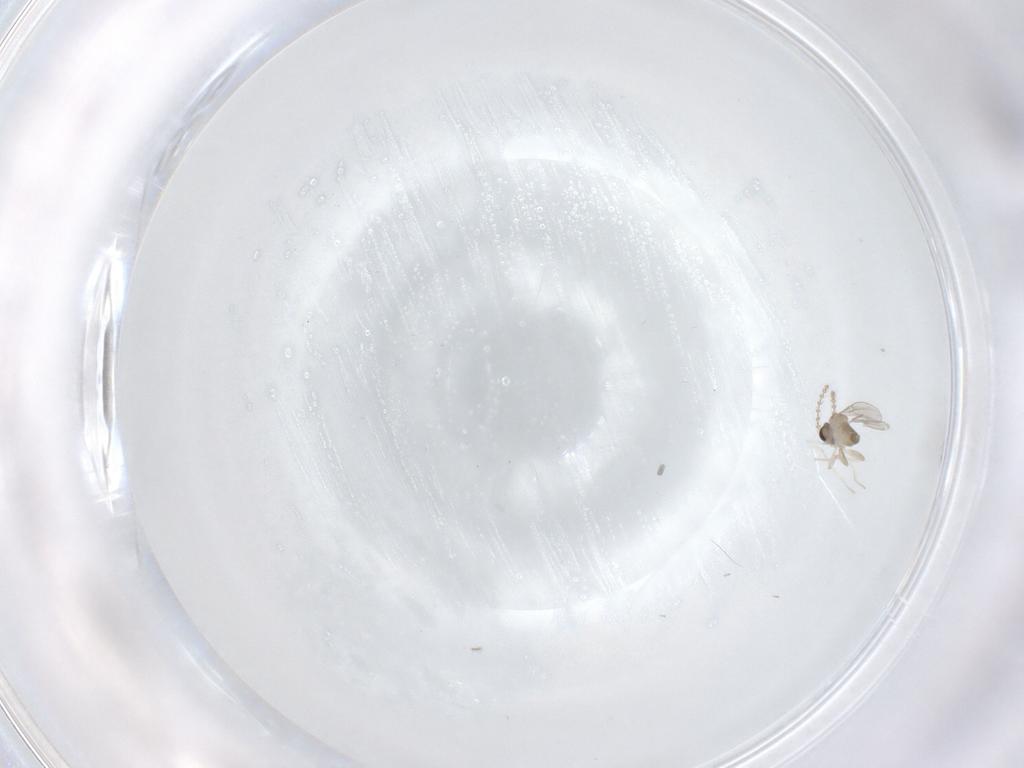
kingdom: Animalia
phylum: Arthropoda
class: Insecta
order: Diptera
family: Cecidomyiidae
